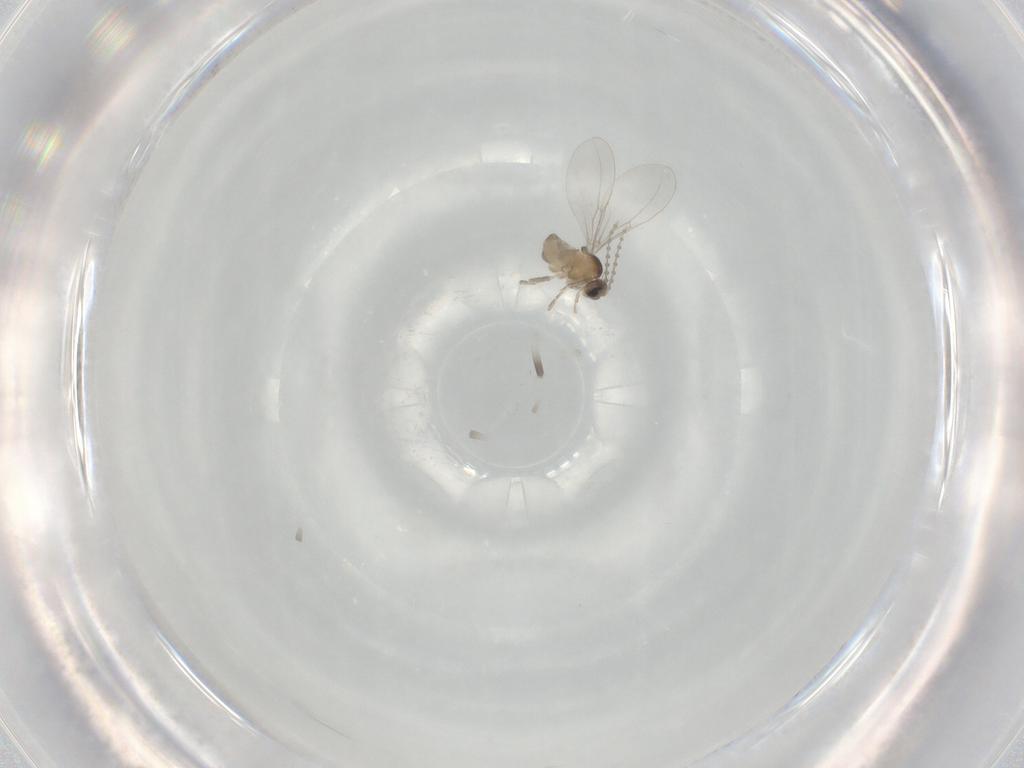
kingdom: Animalia
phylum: Arthropoda
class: Insecta
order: Diptera
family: Cecidomyiidae
